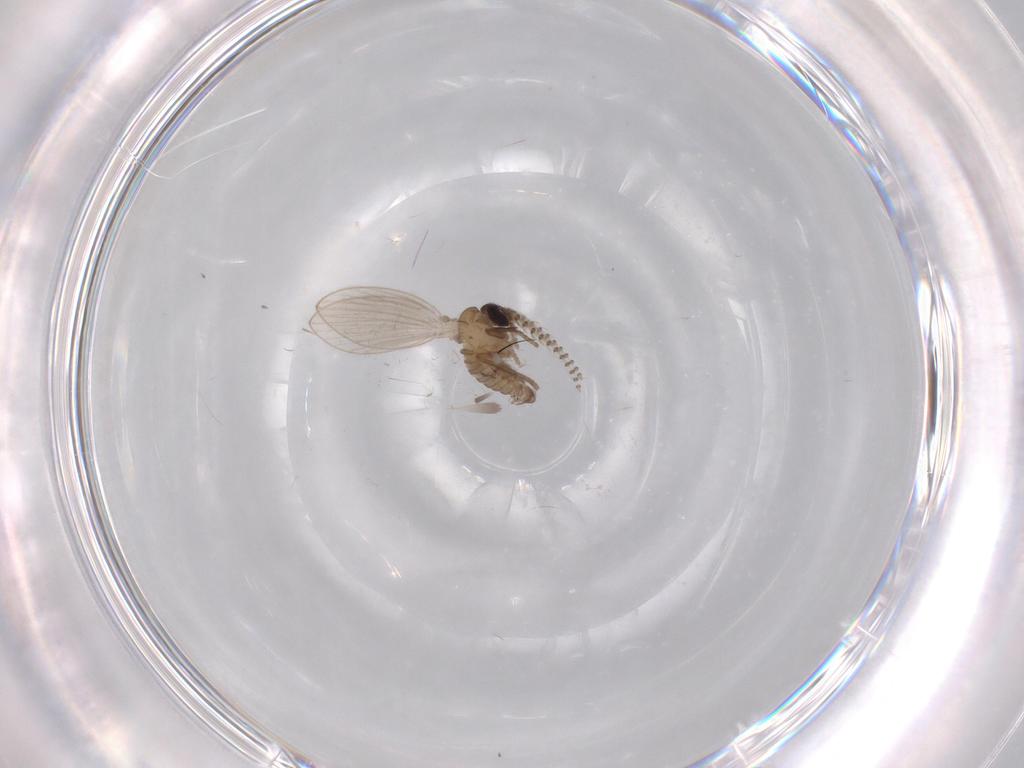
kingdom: Animalia
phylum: Arthropoda
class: Insecta
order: Diptera
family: Limoniidae
